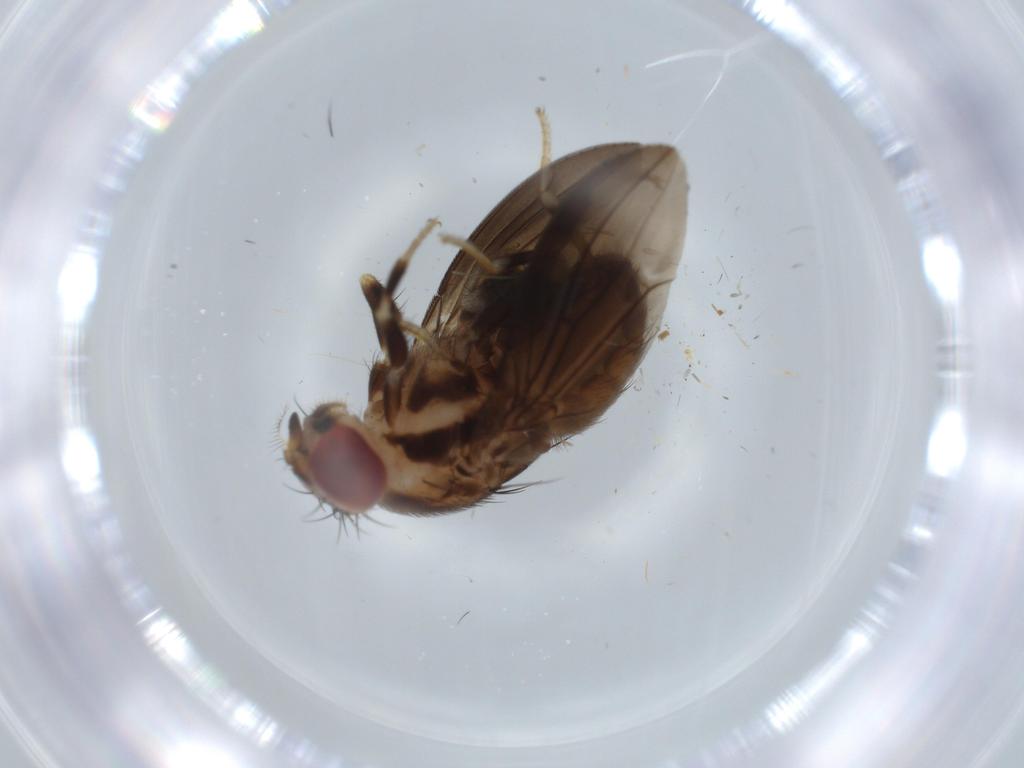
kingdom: Animalia
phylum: Arthropoda
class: Insecta
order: Diptera
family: Ceratopogonidae
